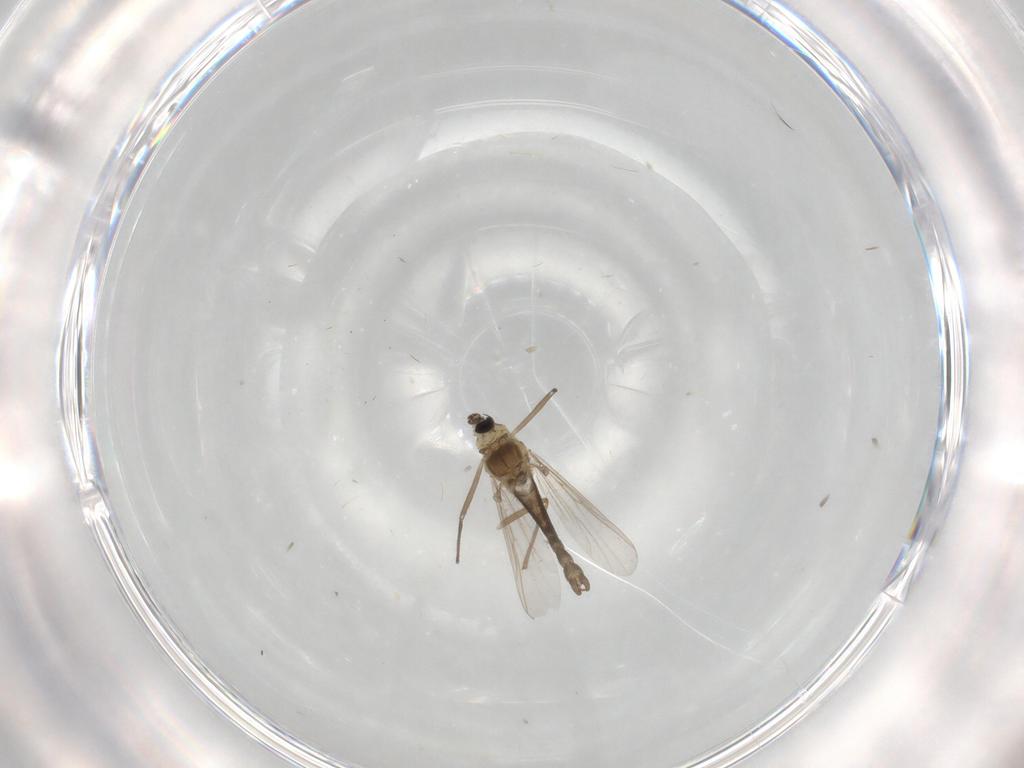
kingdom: Animalia
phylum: Arthropoda
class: Insecta
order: Diptera
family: Chironomidae
